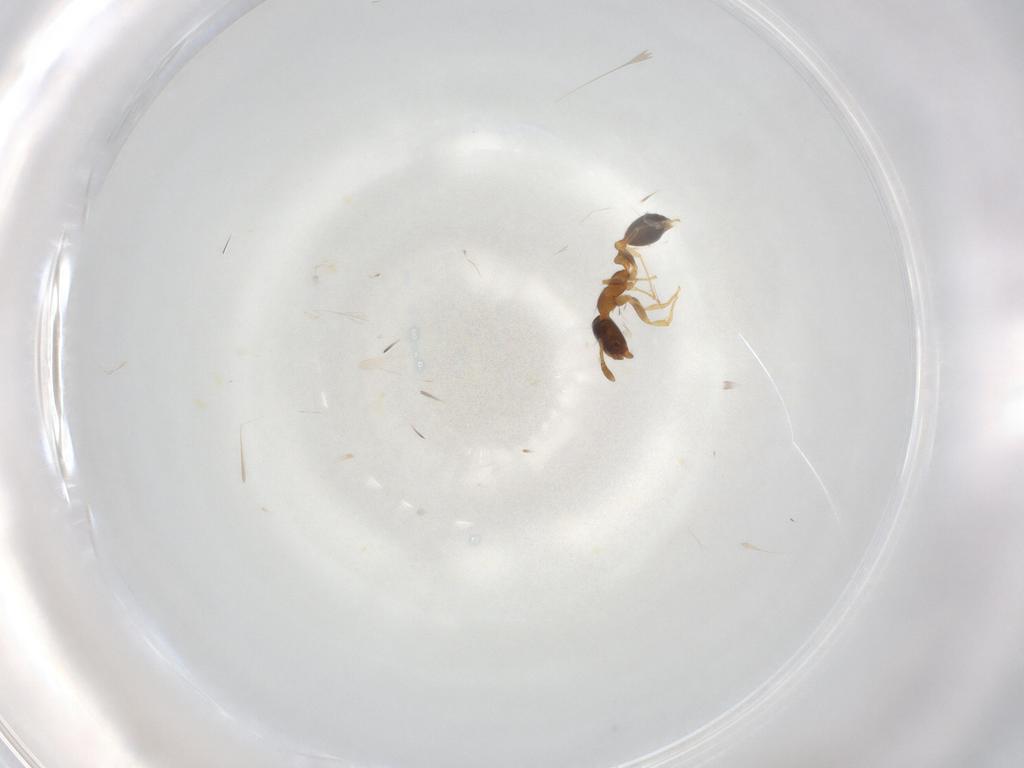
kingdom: Animalia
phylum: Arthropoda
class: Insecta
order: Hymenoptera
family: Formicidae
